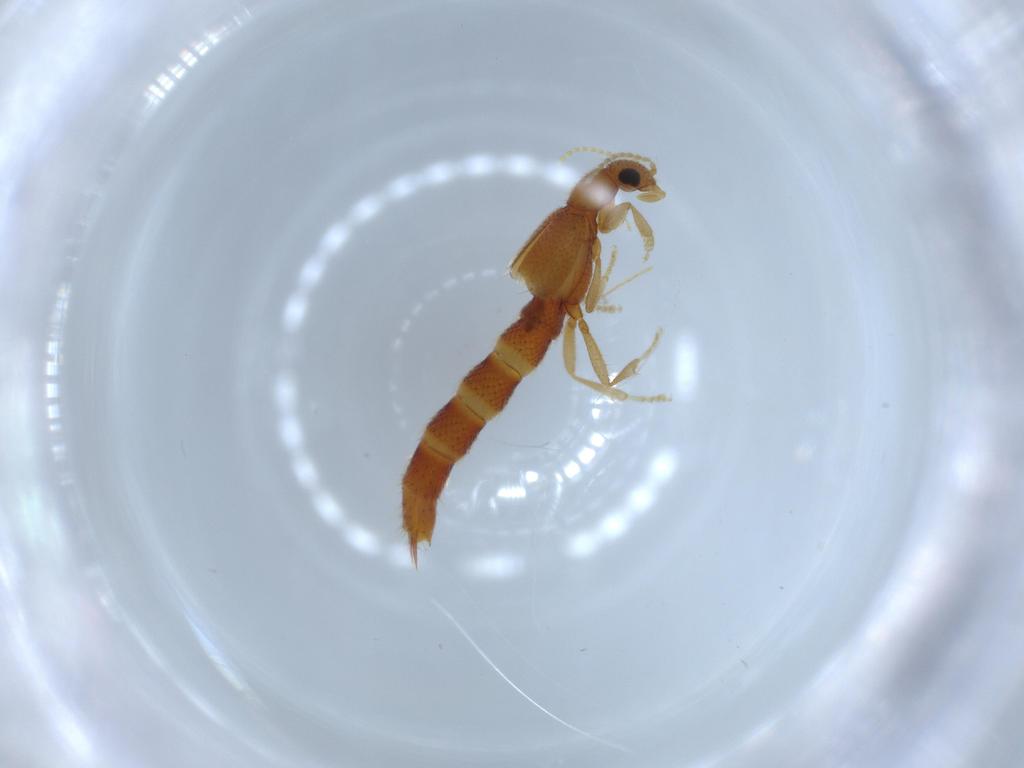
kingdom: Animalia
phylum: Arthropoda
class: Insecta
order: Coleoptera
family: Staphylinidae
